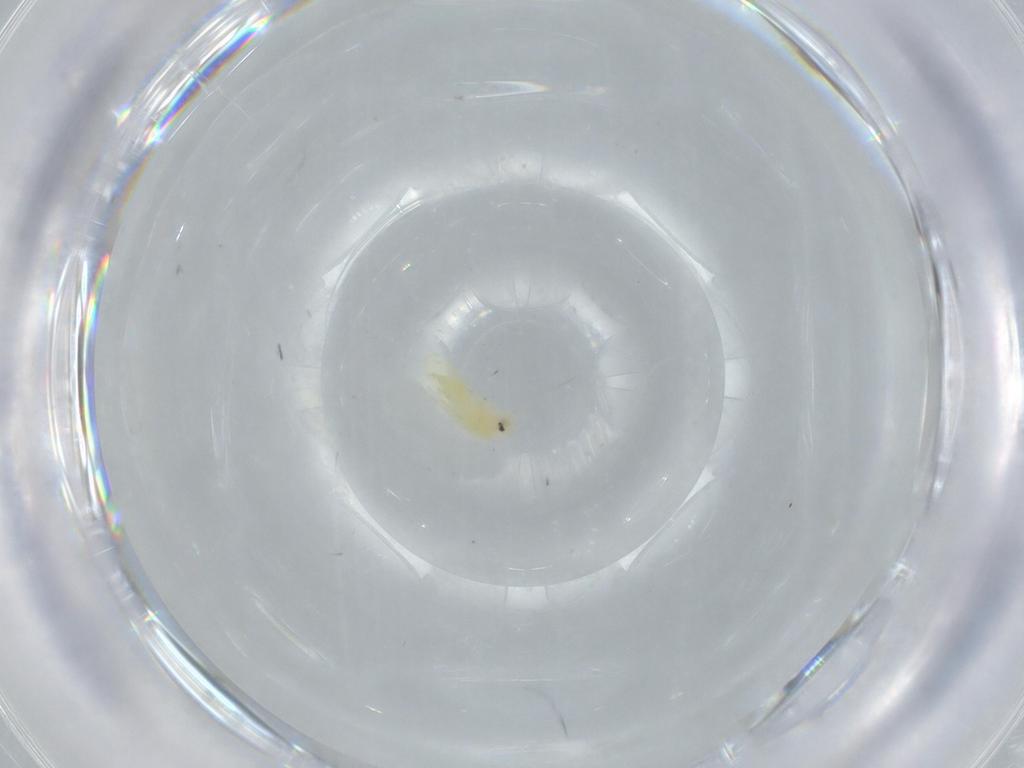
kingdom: Animalia
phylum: Arthropoda
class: Insecta
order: Hemiptera
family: Aleyrodidae
